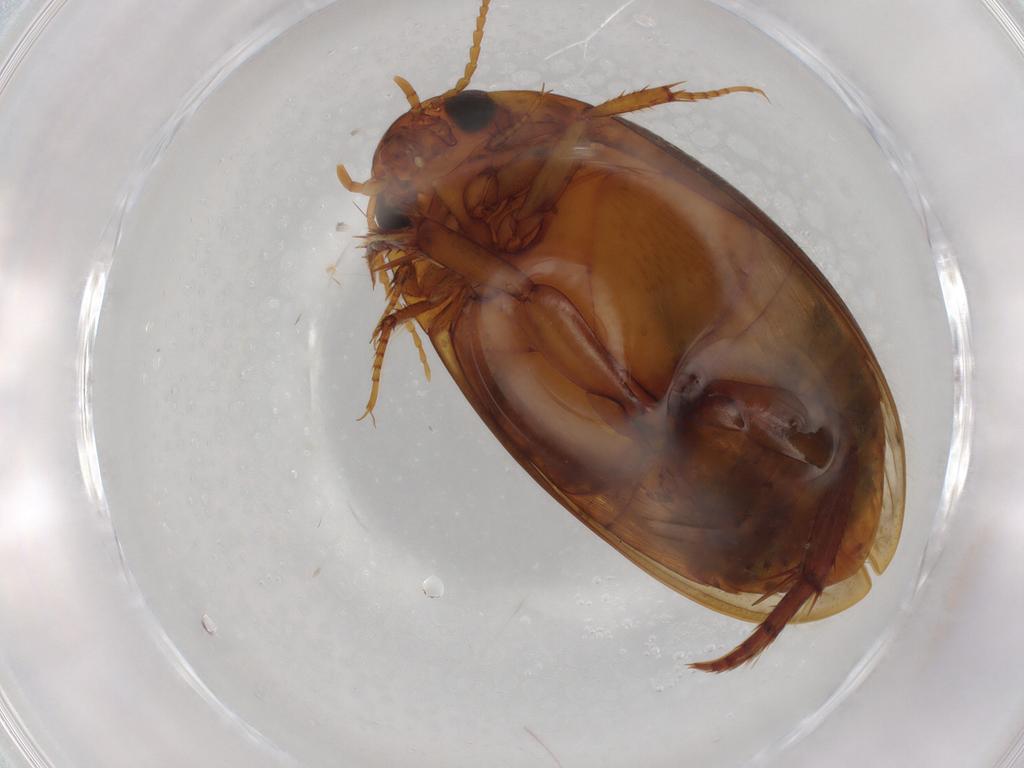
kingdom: Animalia
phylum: Arthropoda
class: Insecta
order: Coleoptera
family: Dytiscidae
